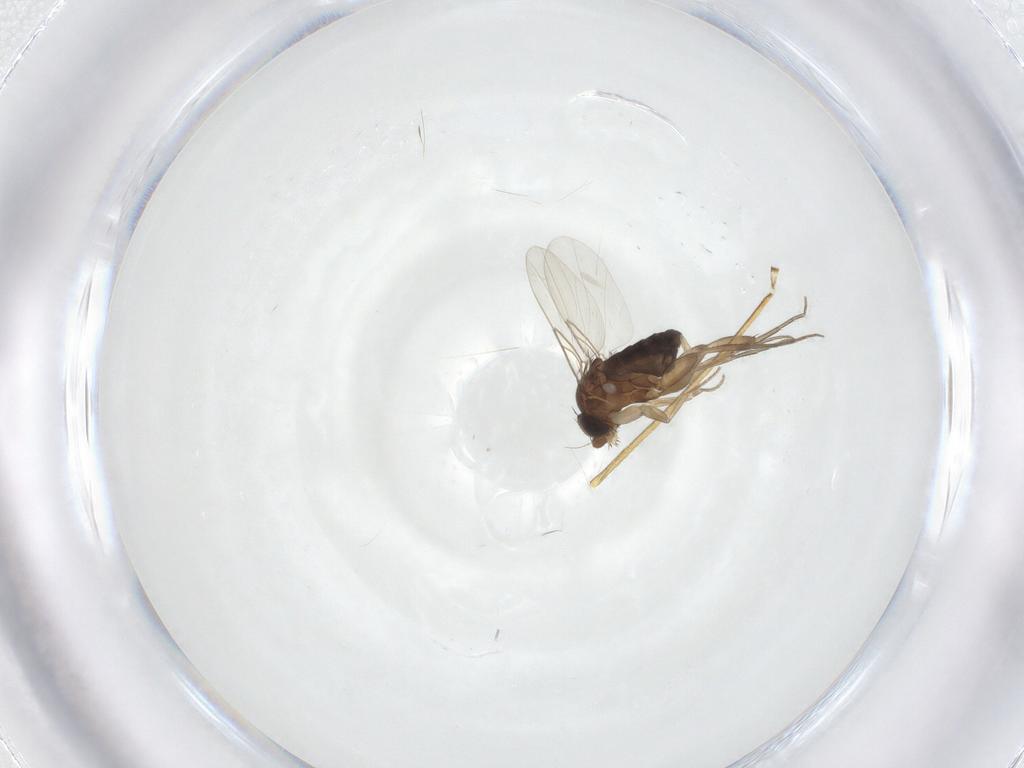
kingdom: Animalia
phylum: Arthropoda
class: Insecta
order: Diptera
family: Phoridae
